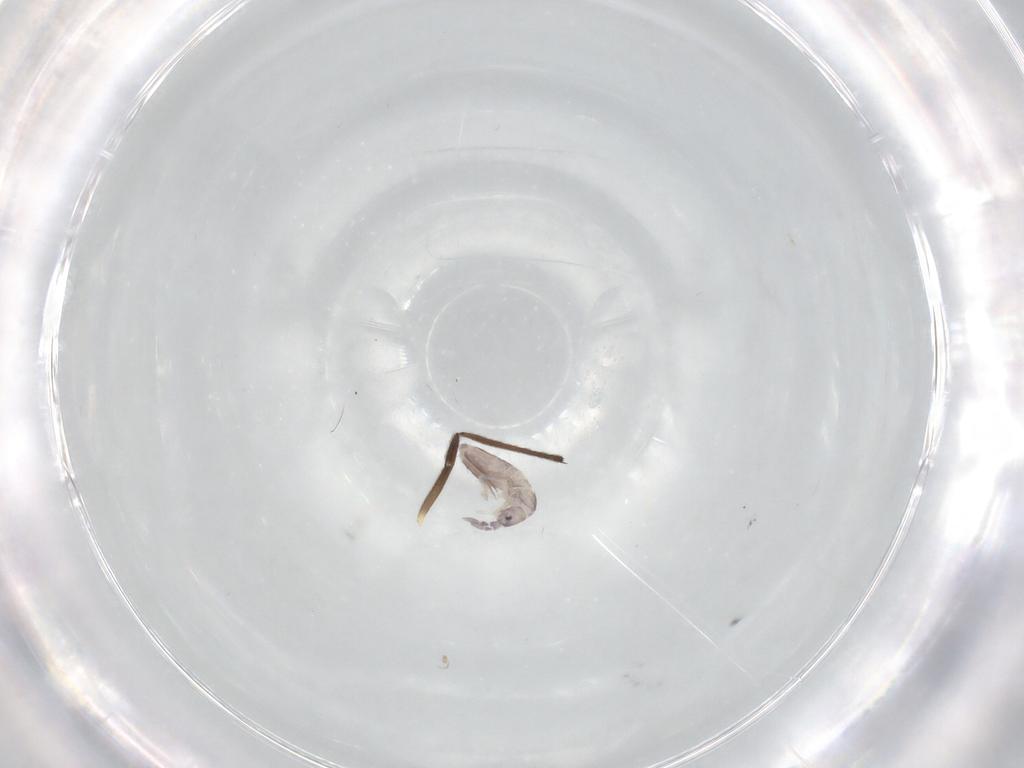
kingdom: Animalia
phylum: Arthropoda
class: Collembola
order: Entomobryomorpha
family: Entomobryidae
